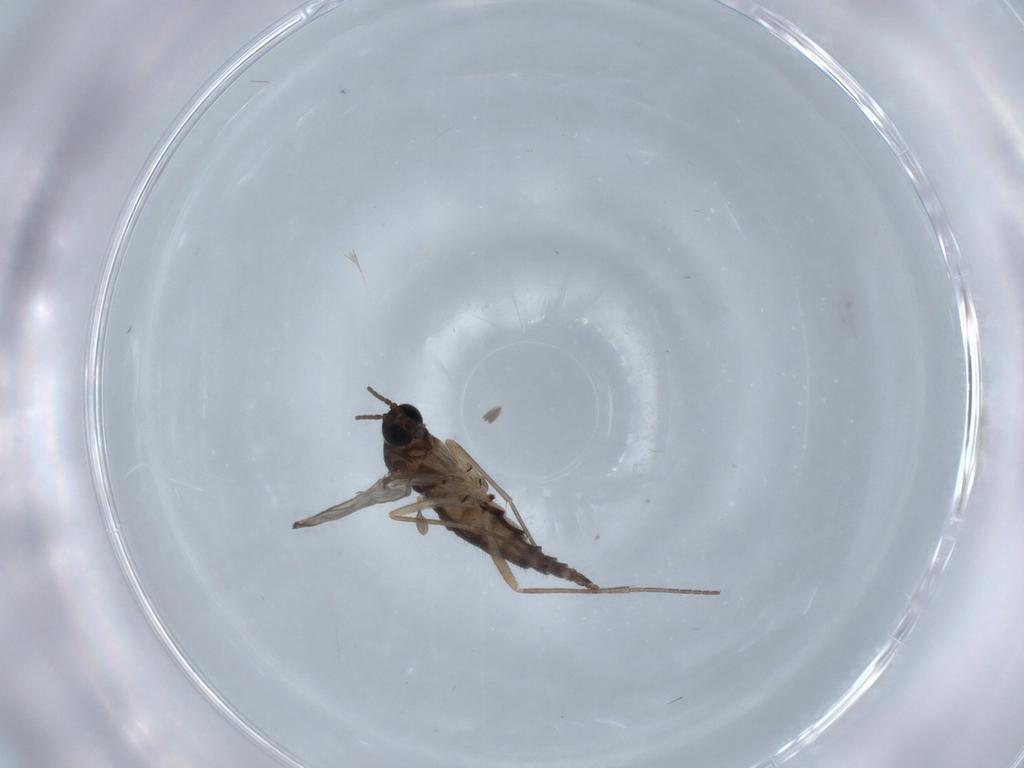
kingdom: Animalia
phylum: Arthropoda
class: Insecta
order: Diptera
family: Sciaridae
